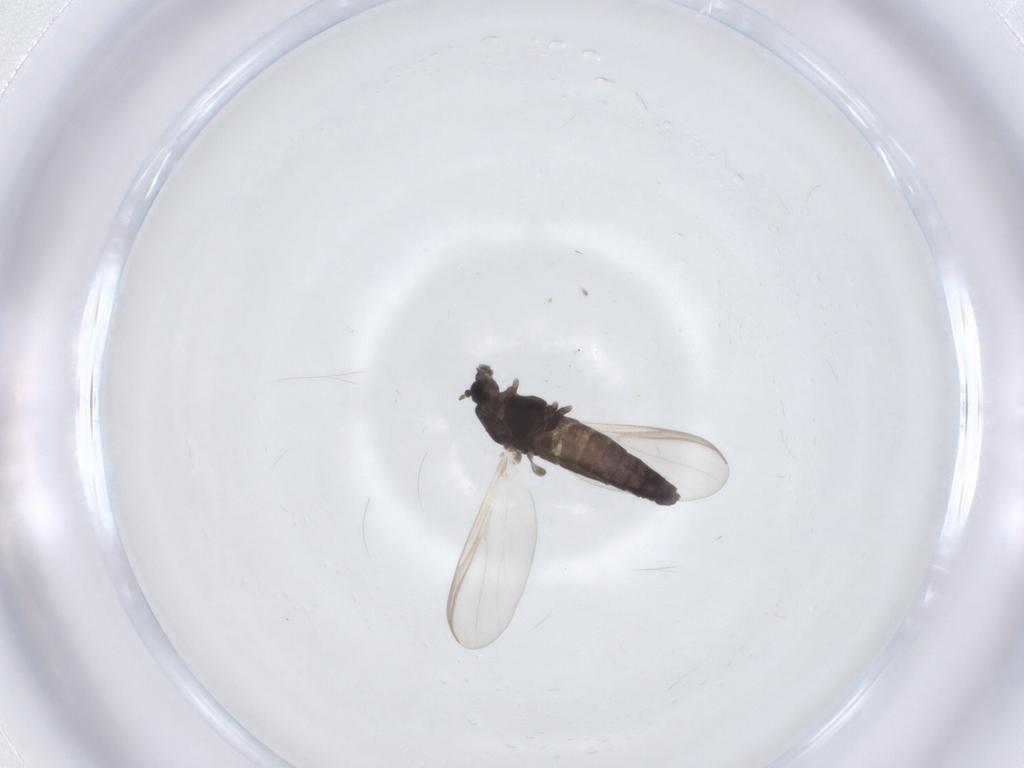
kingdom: Animalia
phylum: Arthropoda
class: Insecta
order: Diptera
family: Chironomidae
